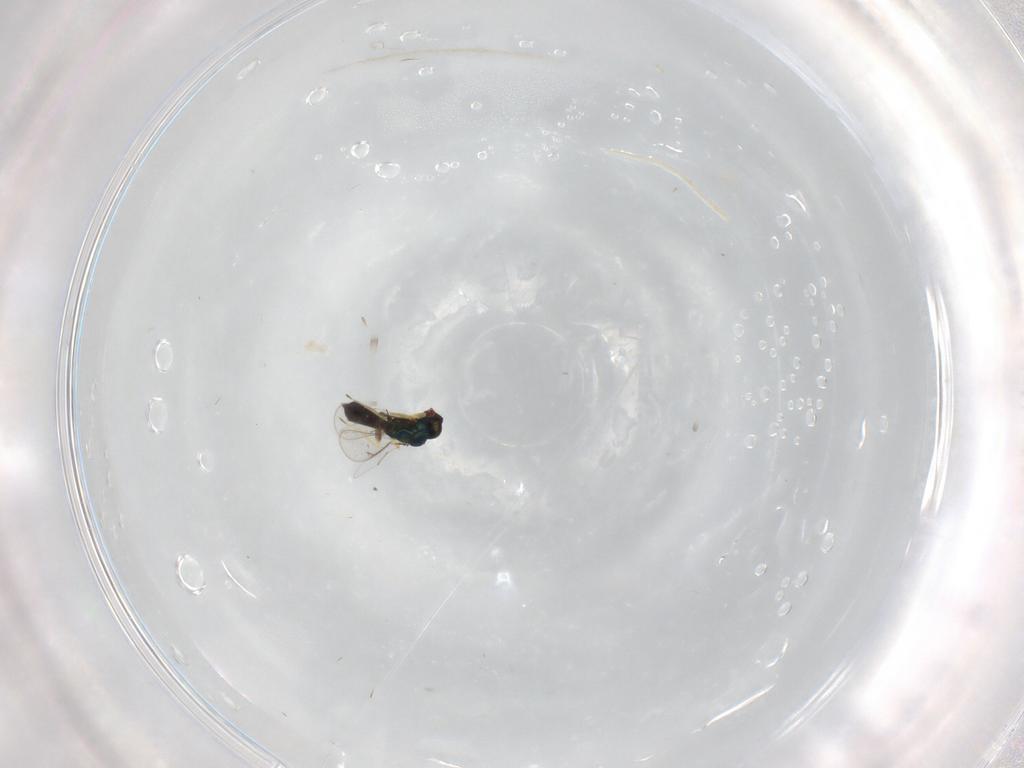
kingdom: Animalia
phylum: Arthropoda
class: Insecta
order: Hymenoptera
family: Eulophidae
